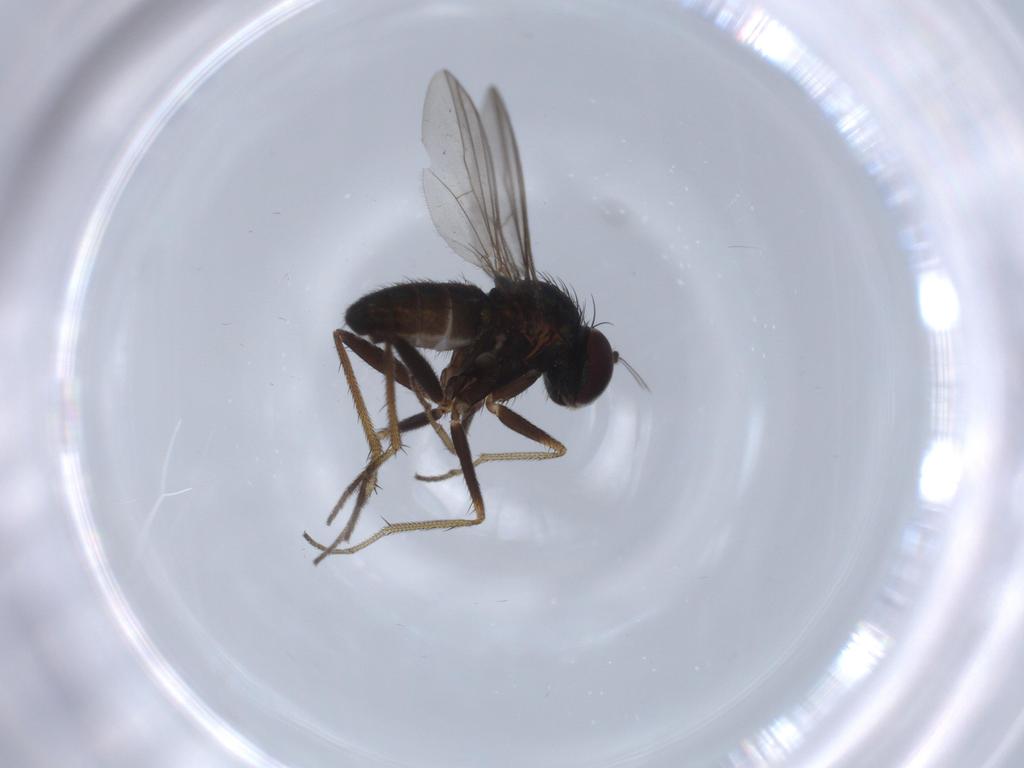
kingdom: Animalia
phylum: Arthropoda
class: Insecta
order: Diptera
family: Dolichopodidae
